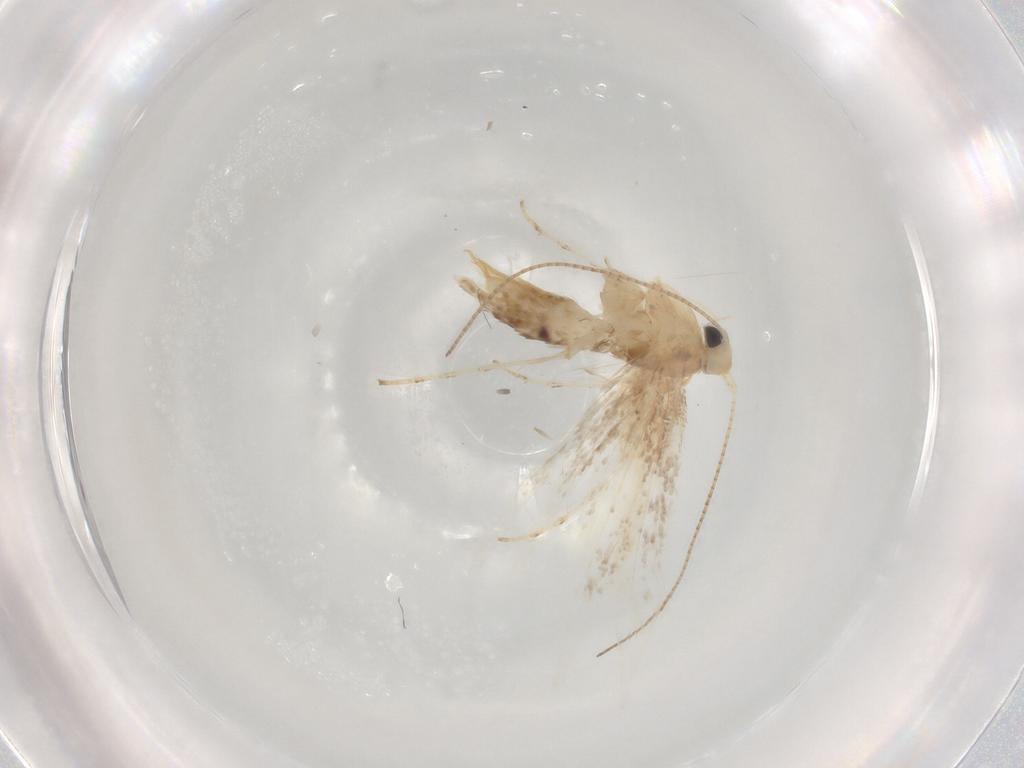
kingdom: Animalia
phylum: Arthropoda
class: Insecta
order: Lepidoptera
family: Gracillariidae
